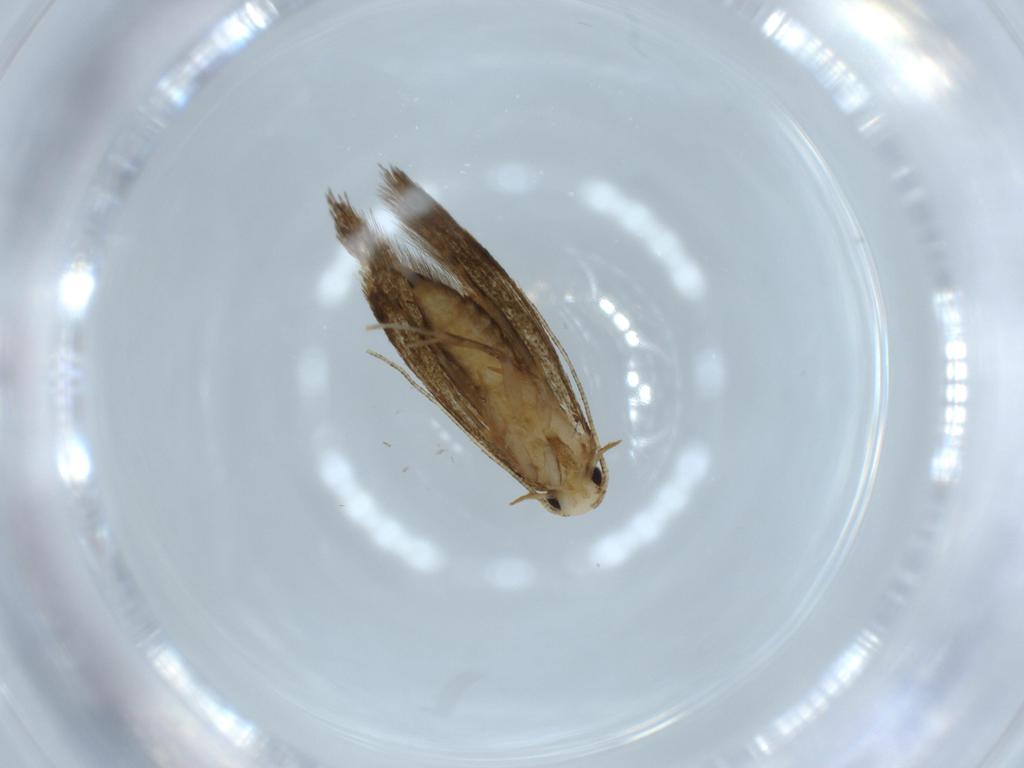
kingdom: Animalia
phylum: Arthropoda
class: Insecta
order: Lepidoptera
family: Tineidae
